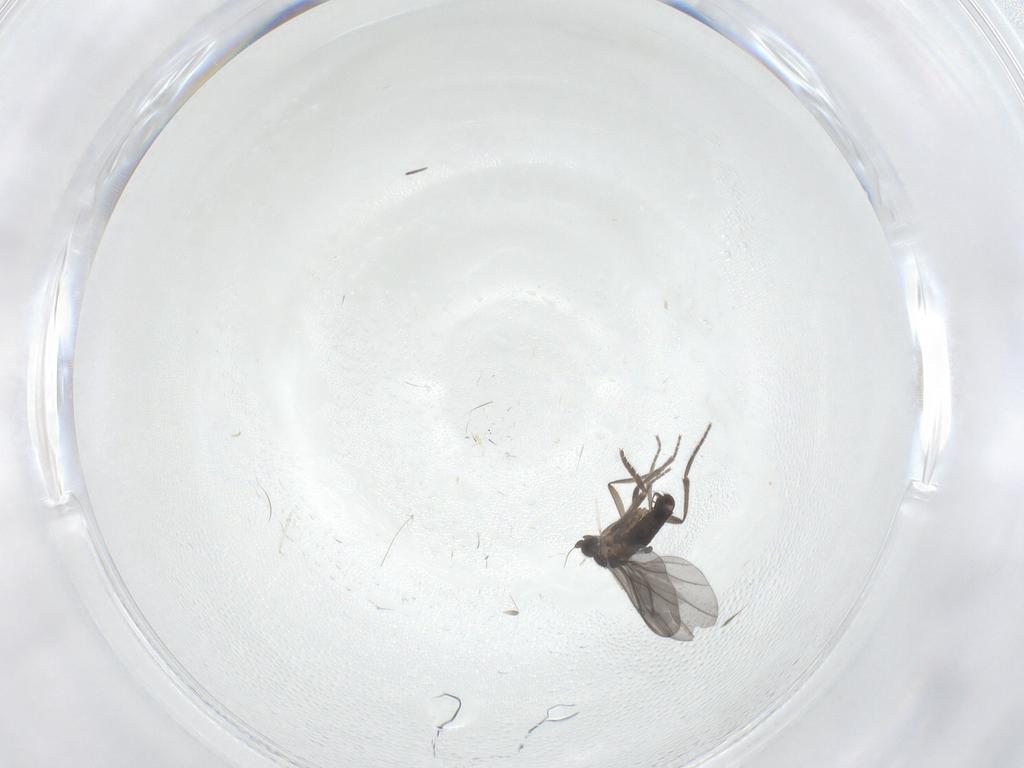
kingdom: Animalia
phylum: Arthropoda
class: Insecta
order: Diptera
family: Phoridae
